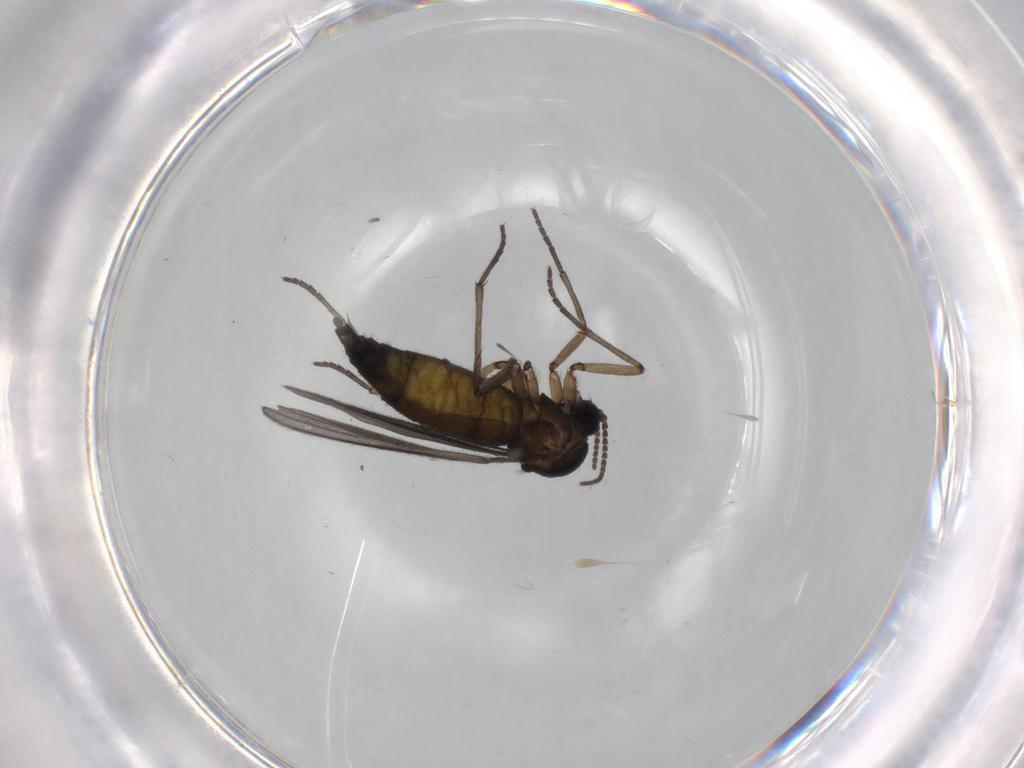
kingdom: Animalia
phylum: Arthropoda
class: Insecta
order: Diptera
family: Sciaridae
